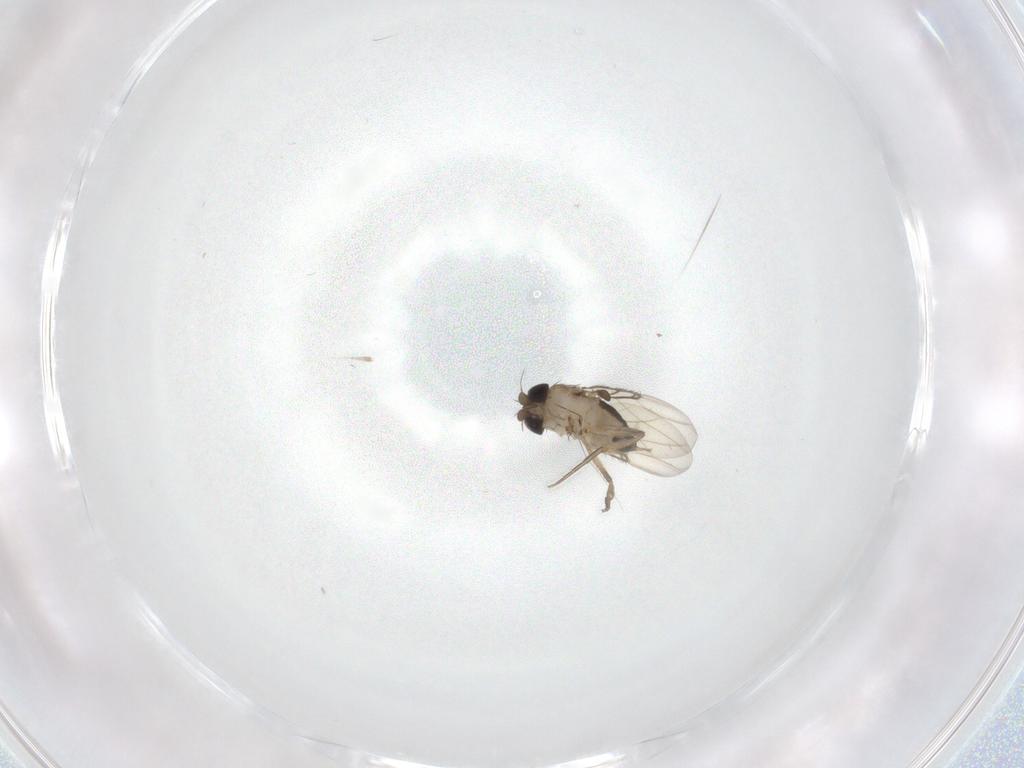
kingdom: Animalia
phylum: Arthropoda
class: Insecta
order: Diptera
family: Phoridae
